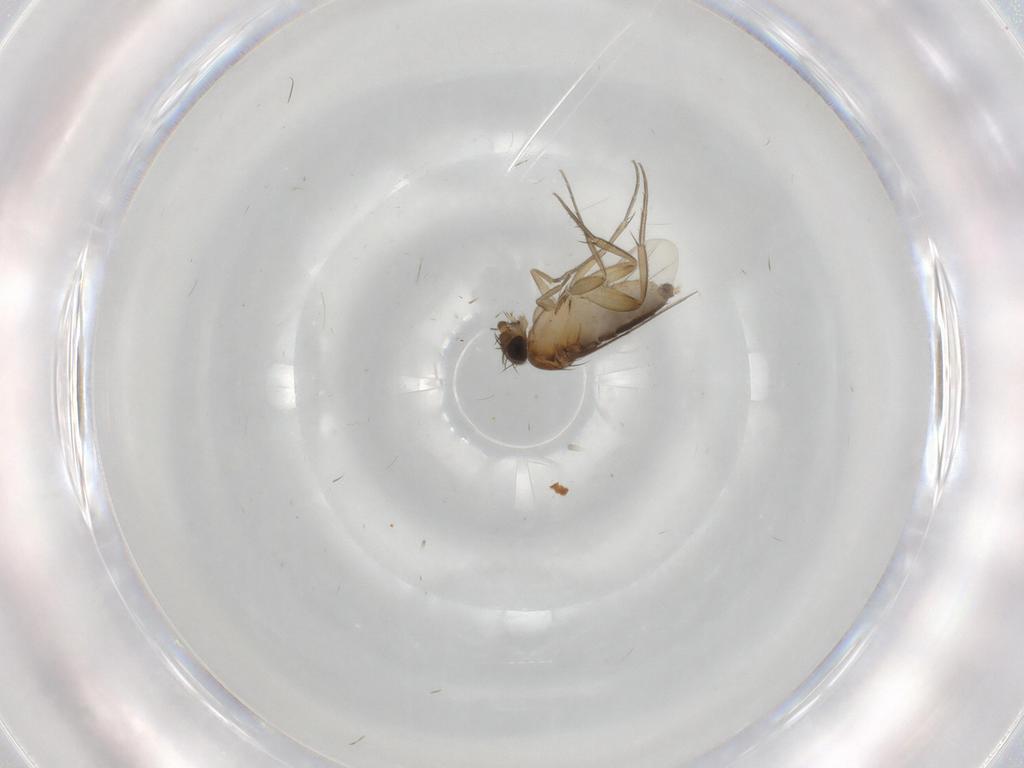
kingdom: Animalia
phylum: Arthropoda
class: Insecta
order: Diptera
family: Phoridae
